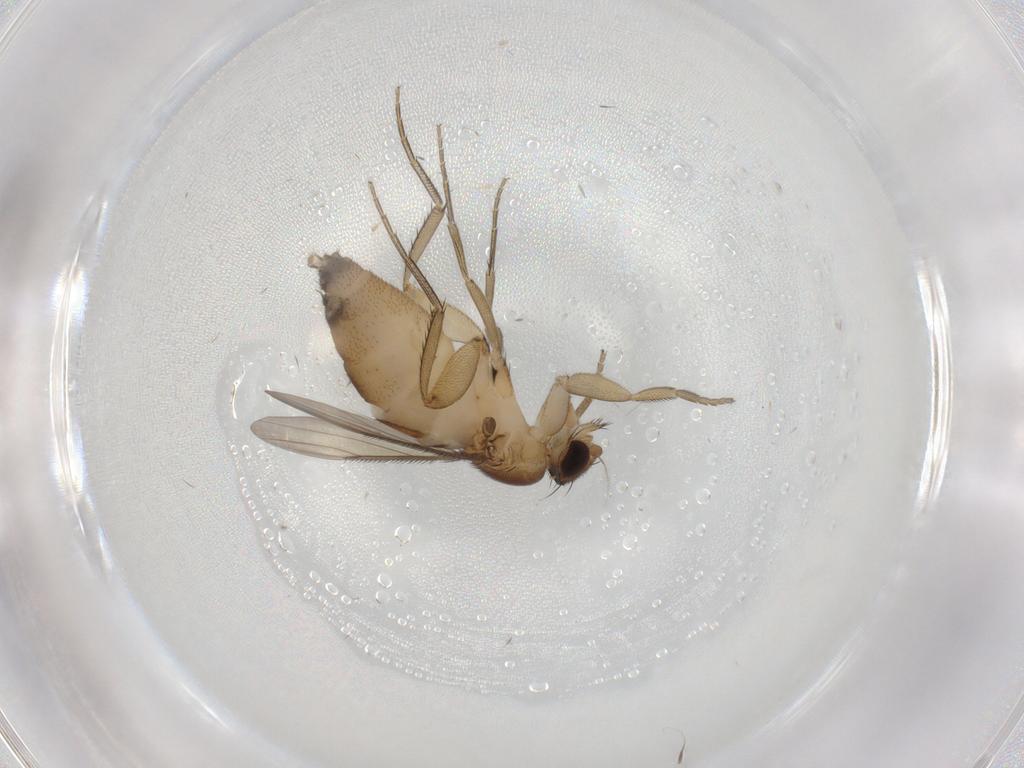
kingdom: Animalia
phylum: Arthropoda
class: Insecta
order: Diptera
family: Phoridae
